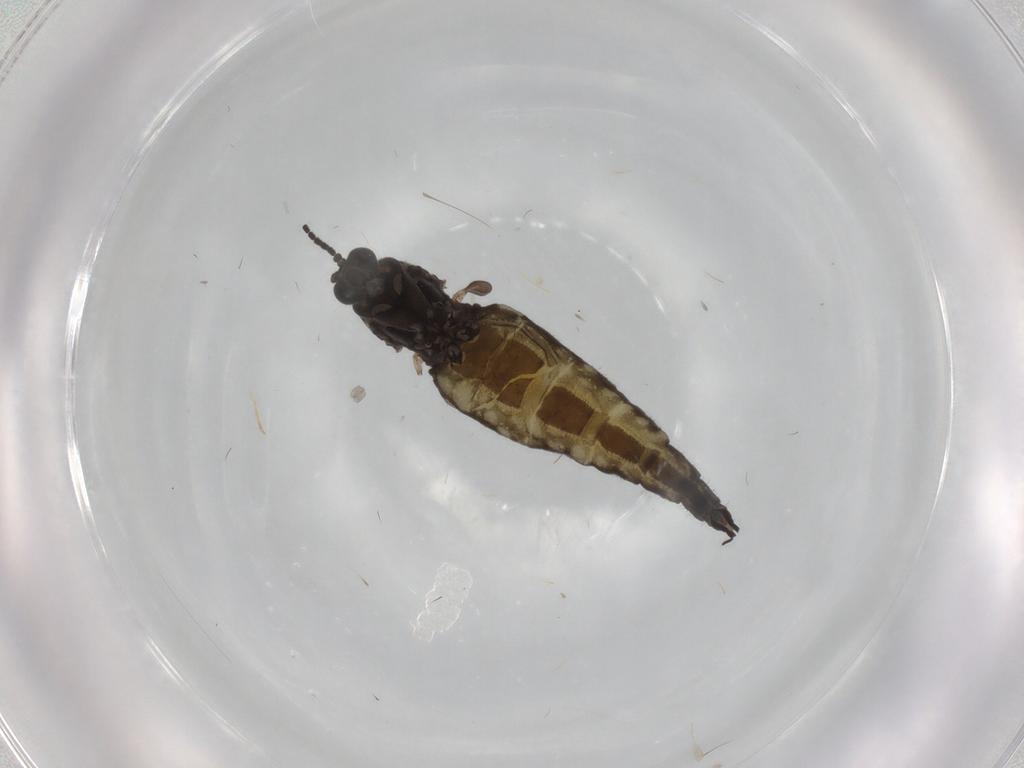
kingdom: Animalia
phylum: Arthropoda
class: Insecta
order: Diptera
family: Sciaridae
